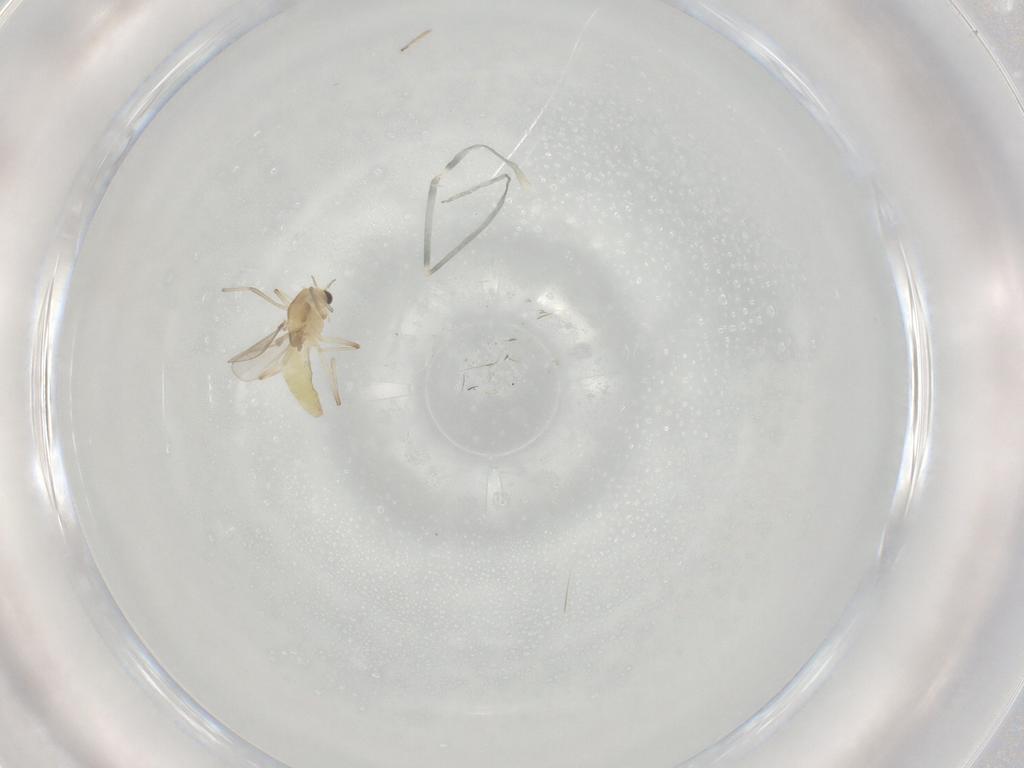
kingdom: Animalia
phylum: Arthropoda
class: Insecta
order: Diptera
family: Chironomidae
